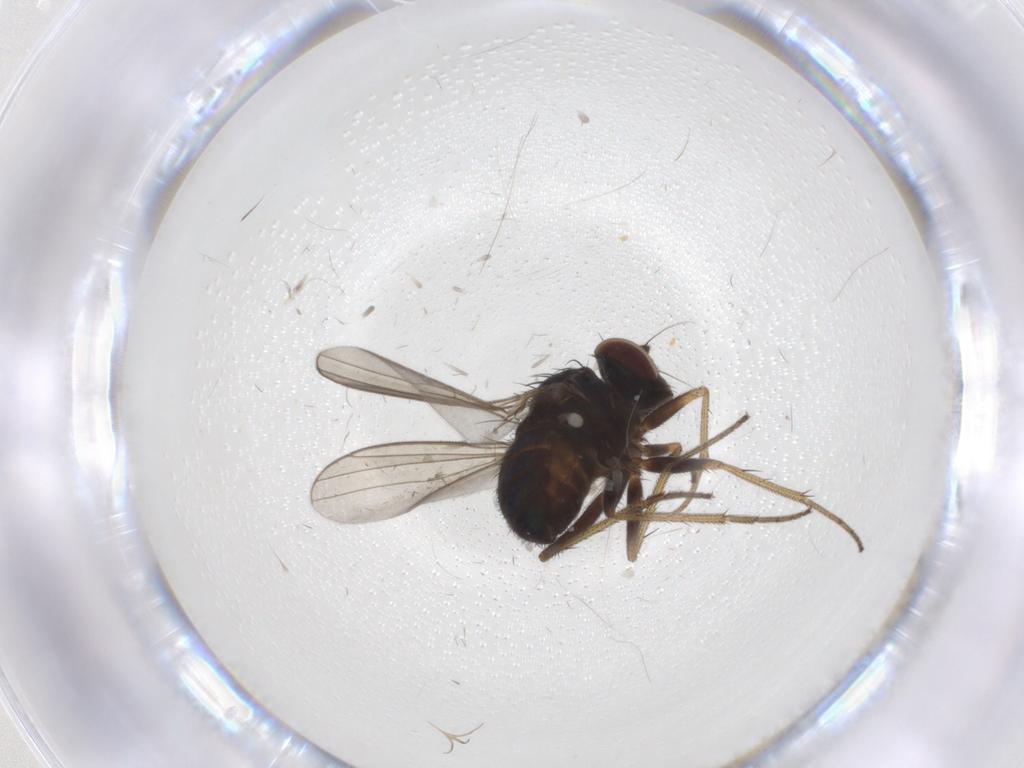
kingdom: Animalia
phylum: Arthropoda
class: Insecta
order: Diptera
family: Dolichopodidae
